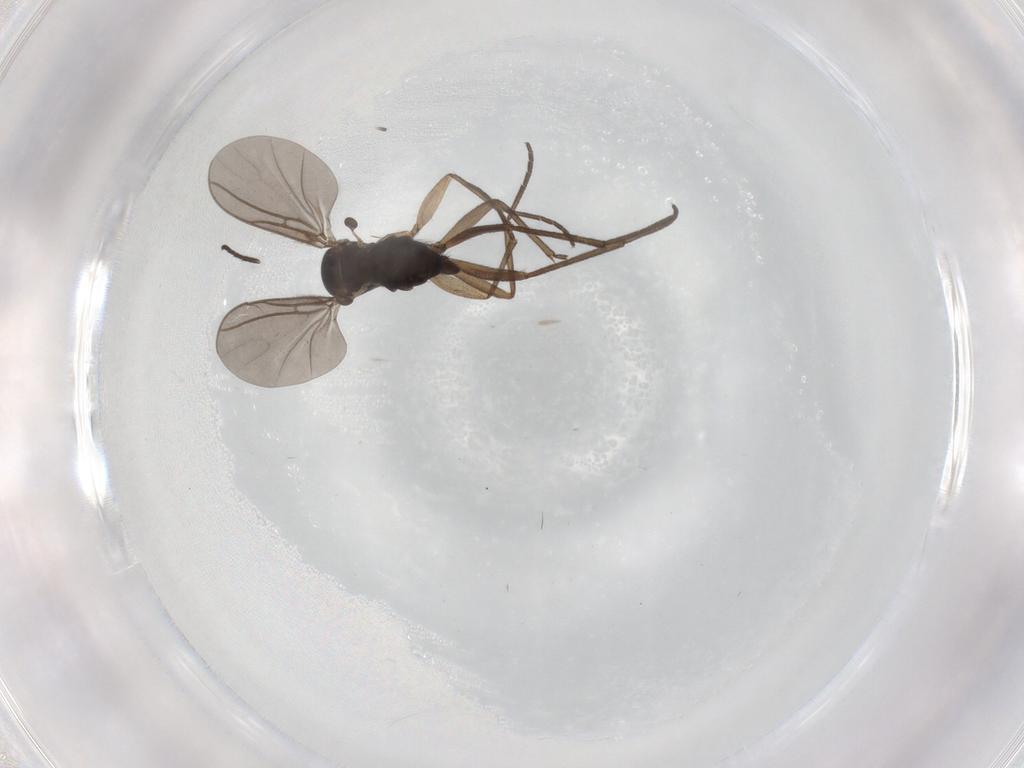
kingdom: Animalia
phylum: Arthropoda
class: Insecta
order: Diptera
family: Sciaridae
